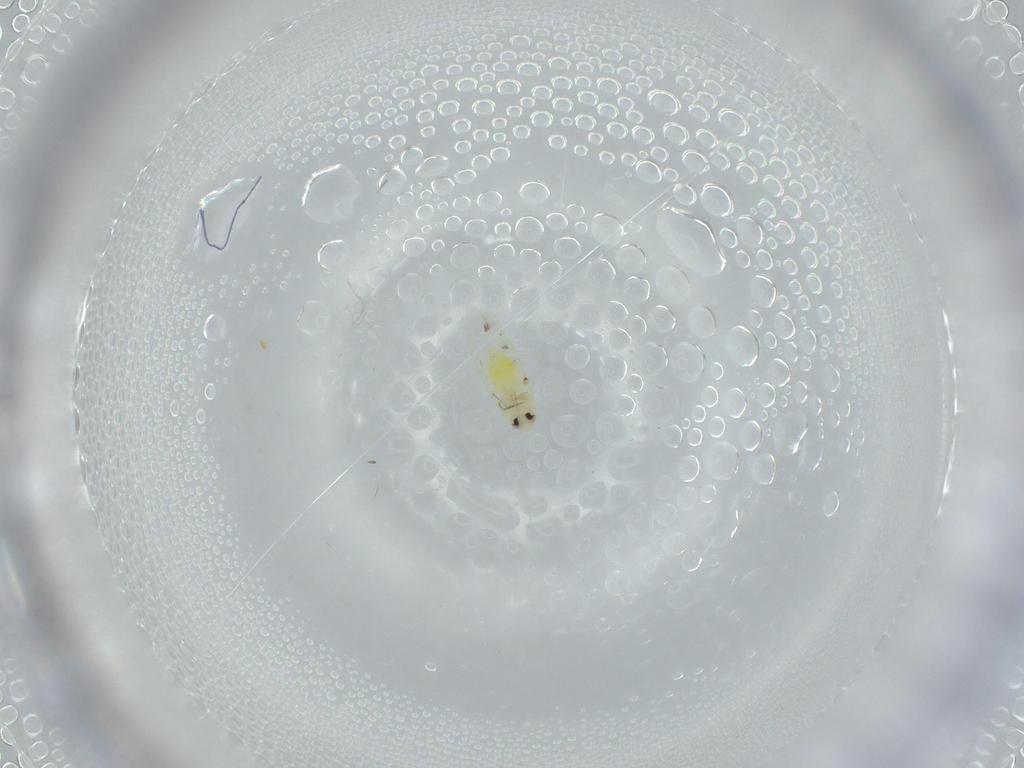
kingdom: Animalia
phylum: Arthropoda
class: Insecta
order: Hemiptera
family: Aleyrodidae
